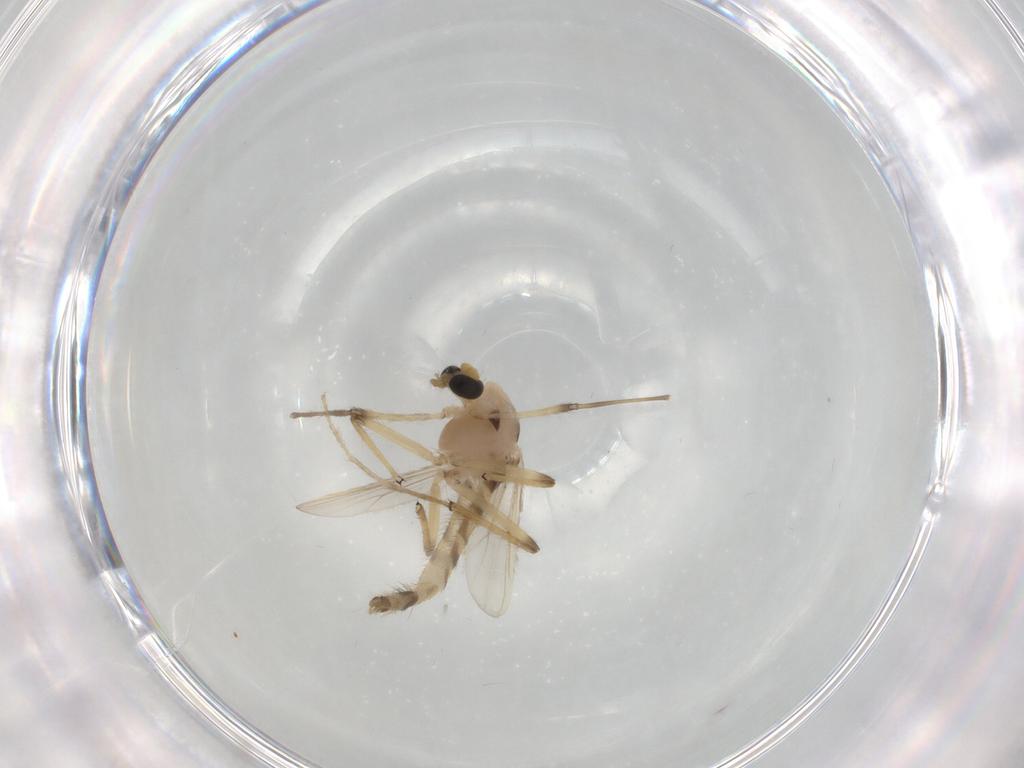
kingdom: Animalia
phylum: Arthropoda
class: Insecta
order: Diptera
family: Chironomidae
